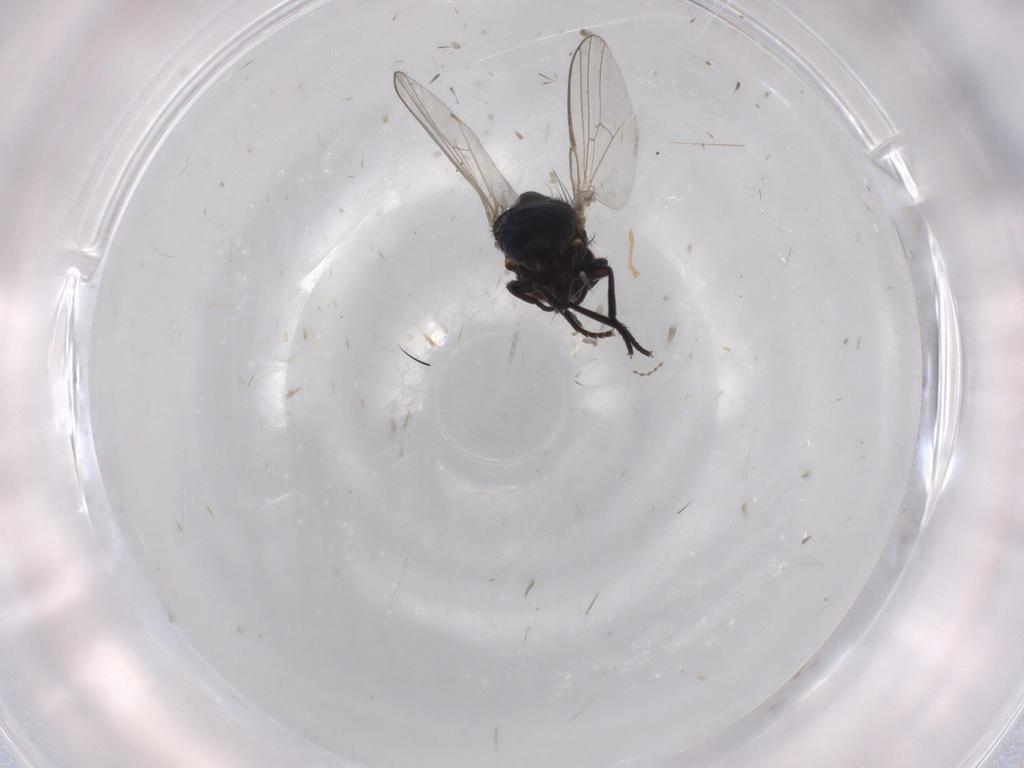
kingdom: Animalia
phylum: Arthropoda
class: Insecta
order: Diptera
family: Agromyzidae
